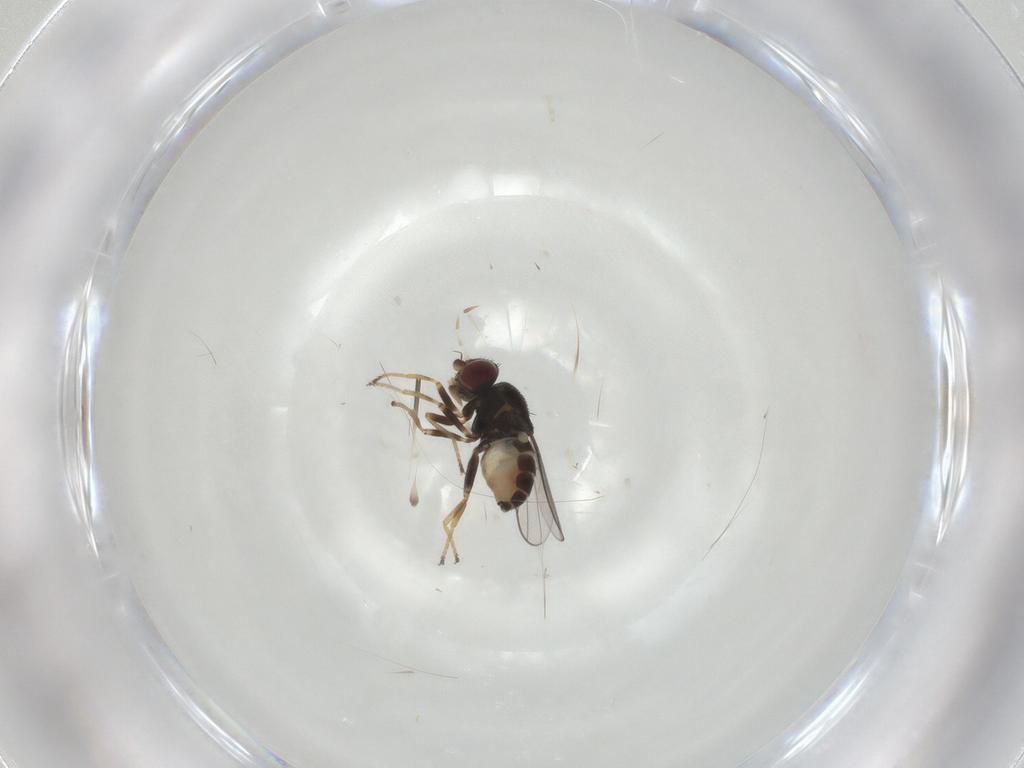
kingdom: Animalia
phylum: Arthropoda
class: Insecta
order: Diptera
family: Chloropidae
